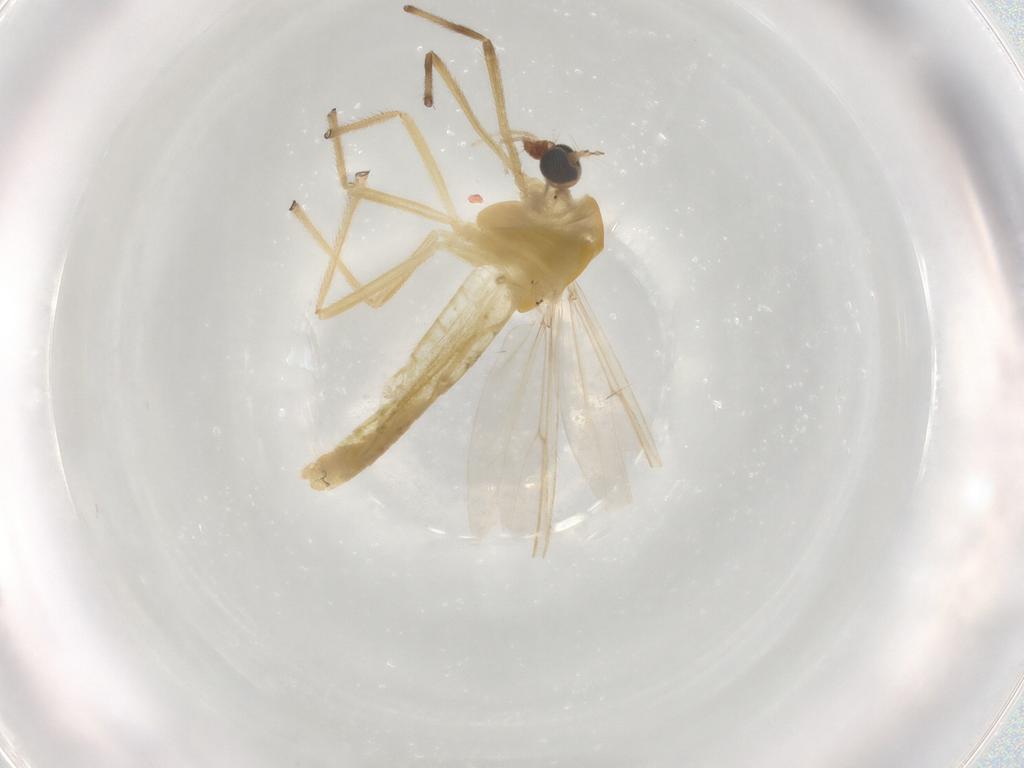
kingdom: Animalia
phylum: Arthropoda
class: Insecta
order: Diptera
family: Chironomidae
